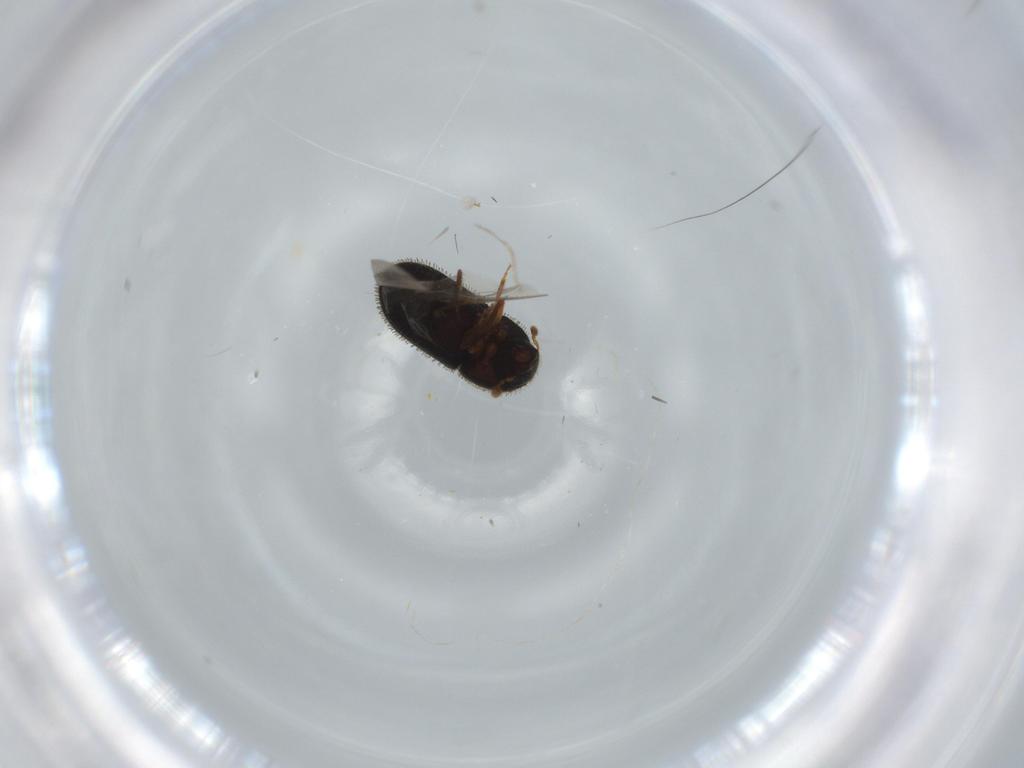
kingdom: Animalia
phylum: Arthropoda
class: Insecta
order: Coleoptera
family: Curculionidae
